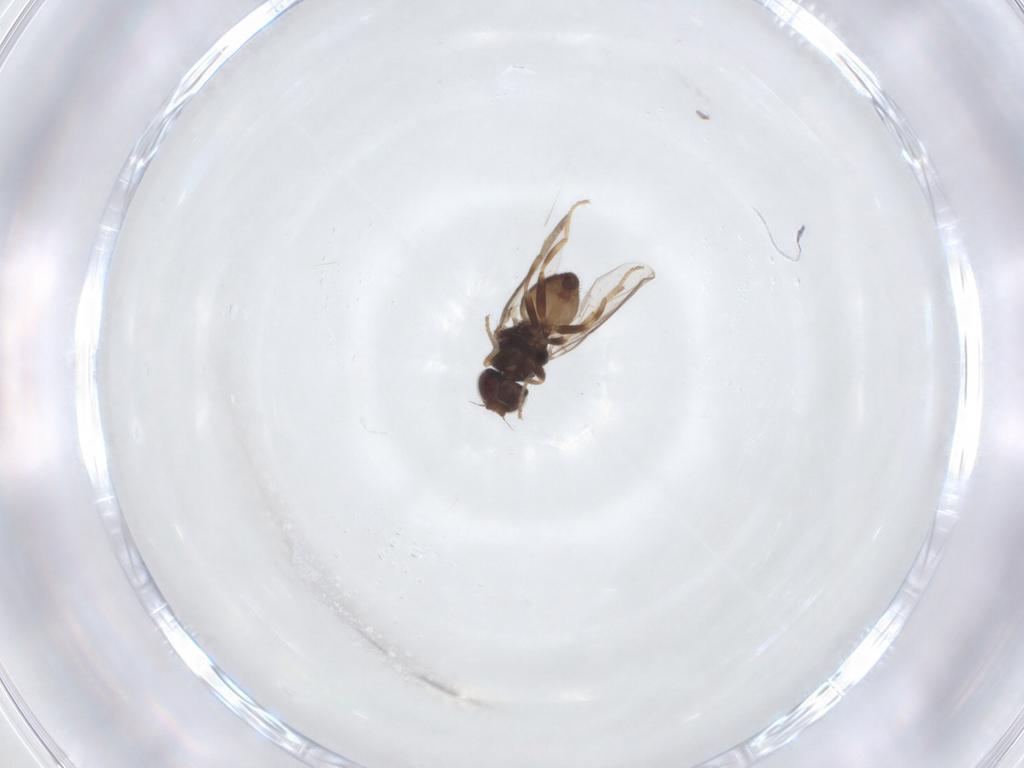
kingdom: Animalia
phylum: Arthropoda
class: Insecta
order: Diptera
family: Chloropidae
